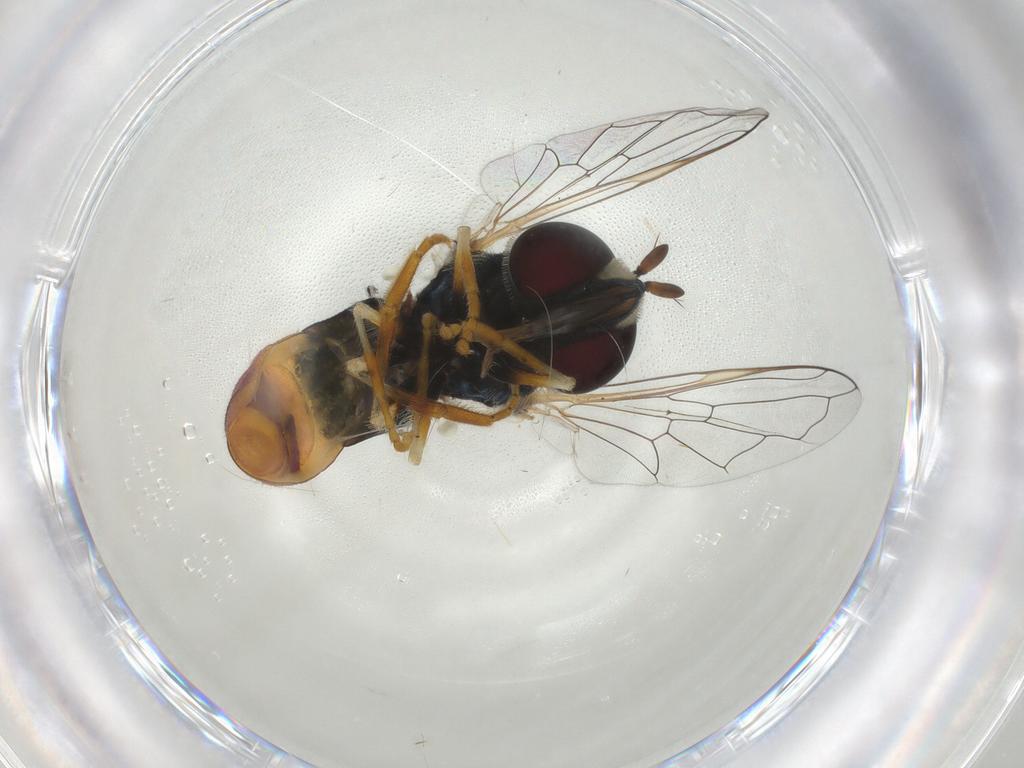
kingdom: Animalia
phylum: Arthropoda
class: Insecta
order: Diptera
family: Syrphidae
